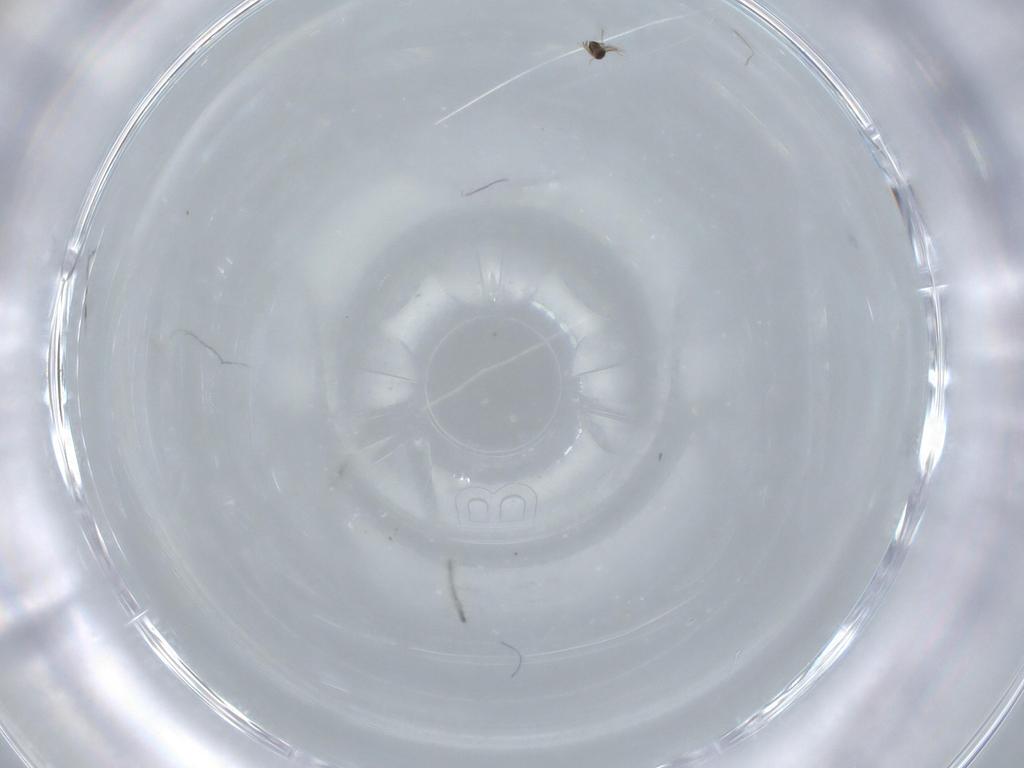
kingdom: Animalia
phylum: Arthropoda
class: Insecta
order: Hymenoptera
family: Mymaridae
